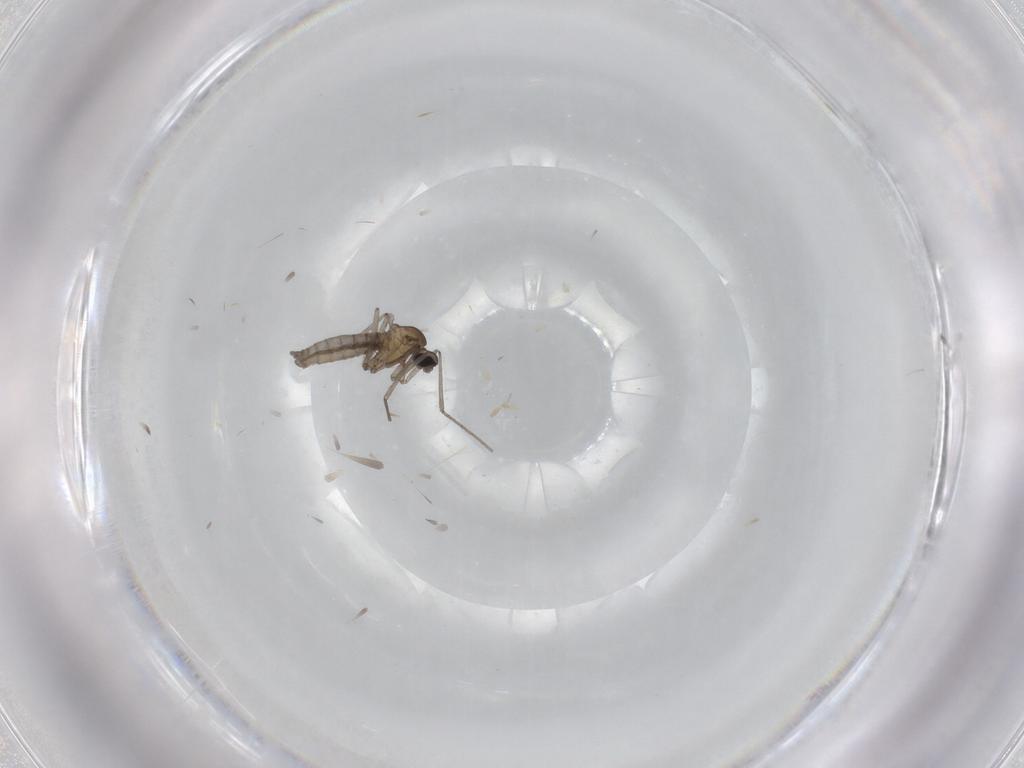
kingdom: Animalia
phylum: Arthropoda
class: Insecta
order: Diptera
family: Cecidomyiidae
